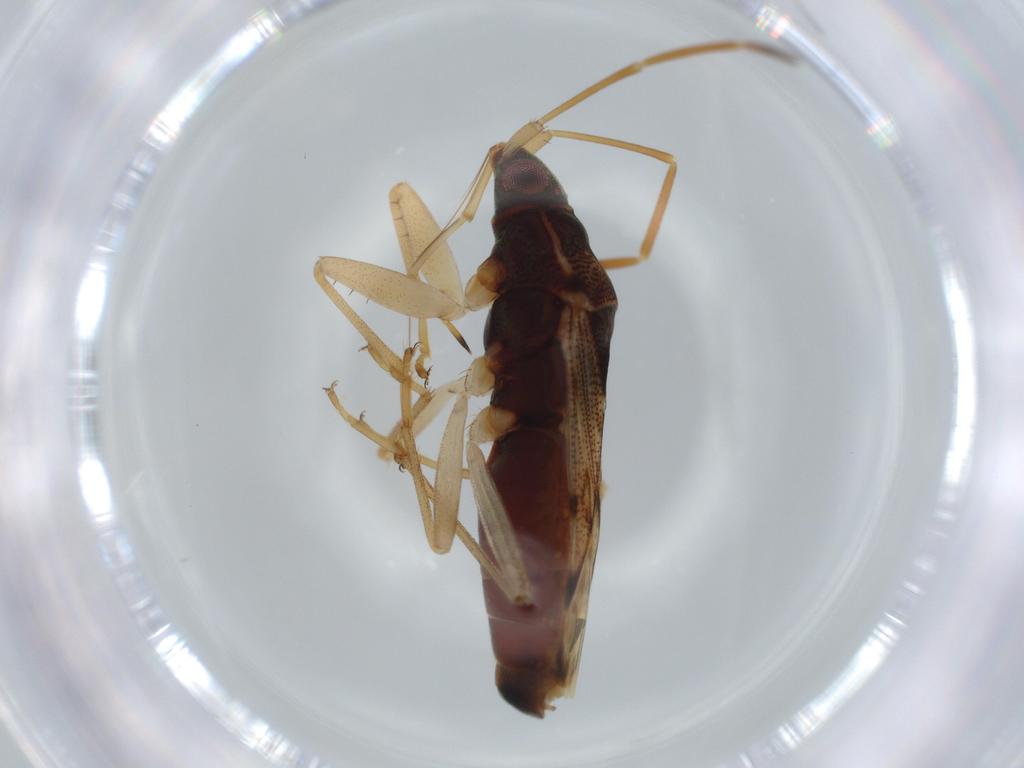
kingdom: Animalia
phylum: Arthropoda
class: Insecta
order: Hemiptera
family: Rhyparochromidae
